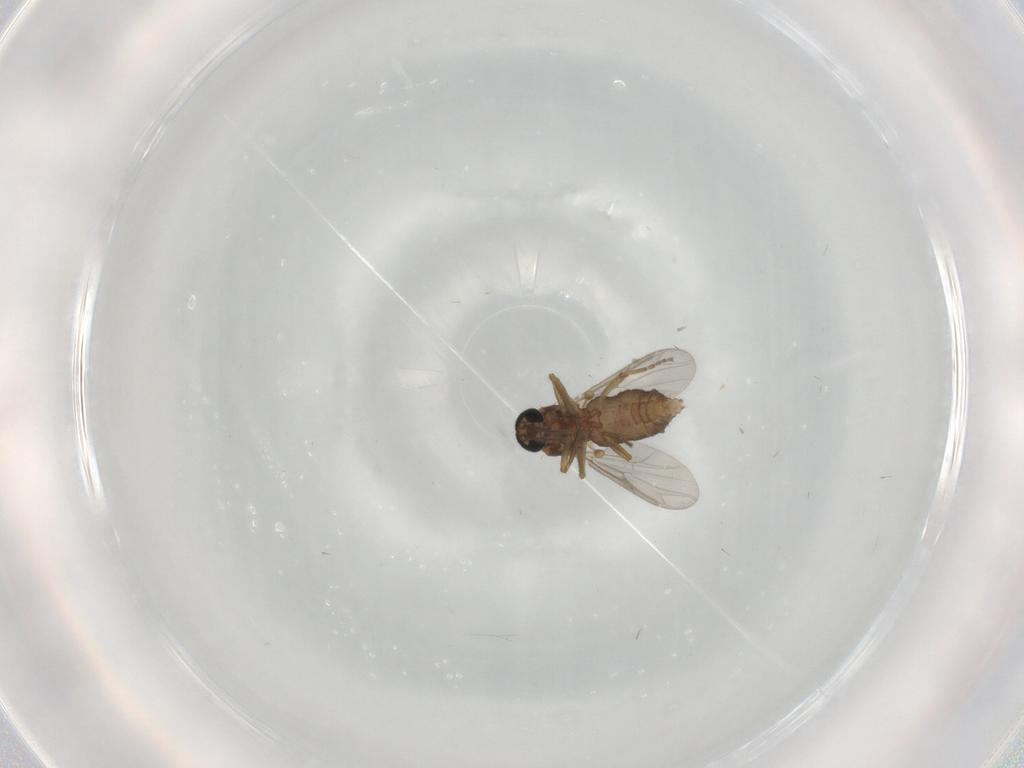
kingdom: Animalia
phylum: Arthropoda
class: Insecta
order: Diptera
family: Ceratopogonidae
